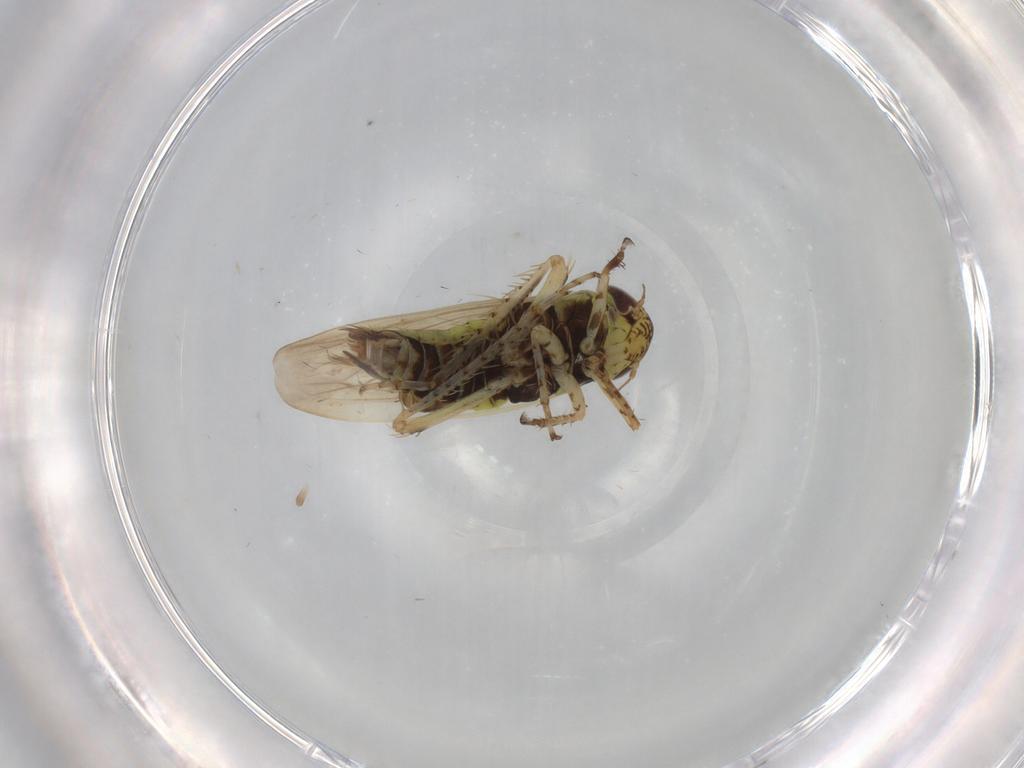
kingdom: Animalia
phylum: Arthropoda
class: Insecta
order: Hemiptera
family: Cicadellidae
